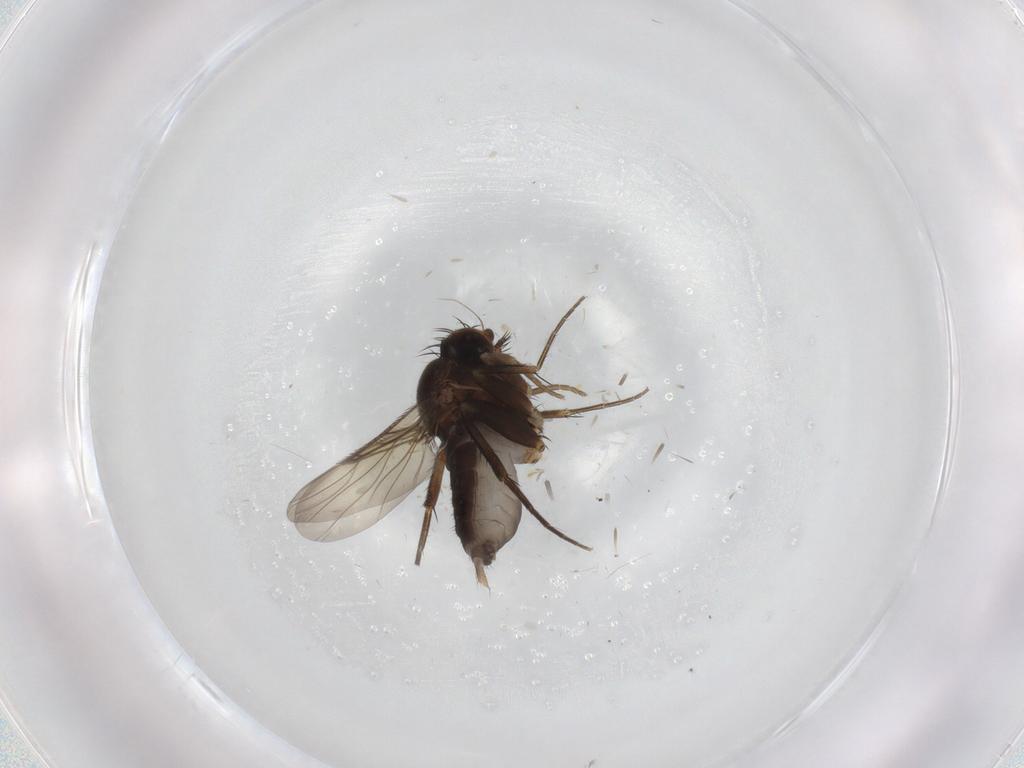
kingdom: Animalia
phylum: Arthropoda
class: Insecta
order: Diptera
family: Phoridae
